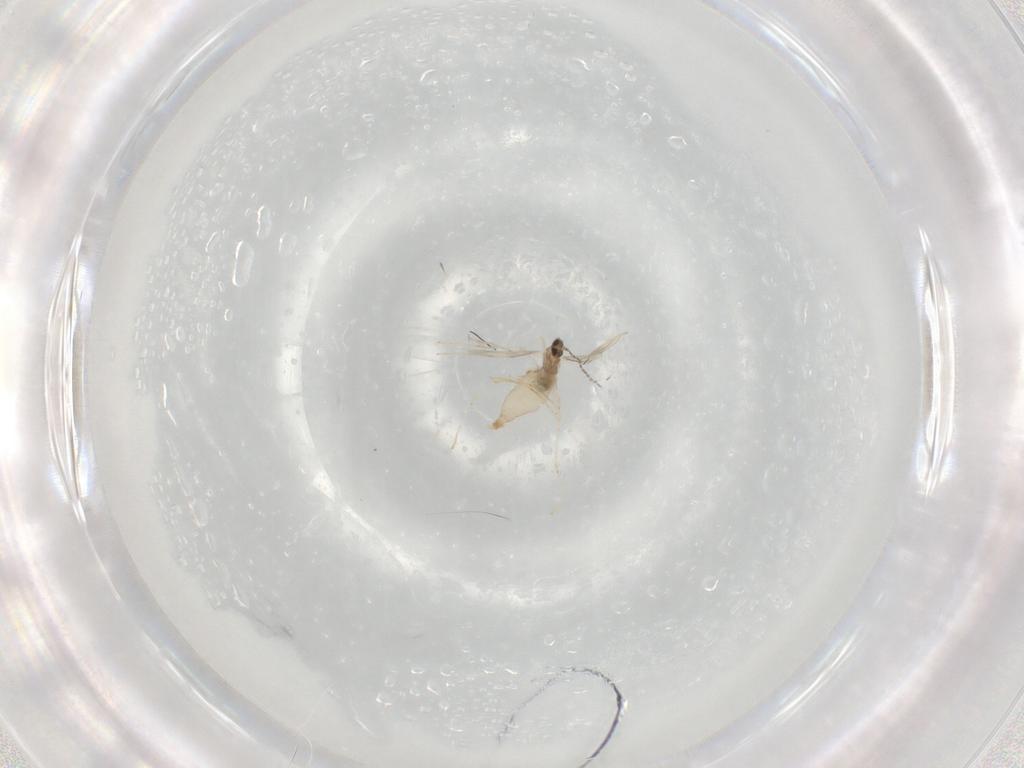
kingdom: Animalia
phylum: Arthropoda
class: Insecta
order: Diptera
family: Cecidomyiidae
